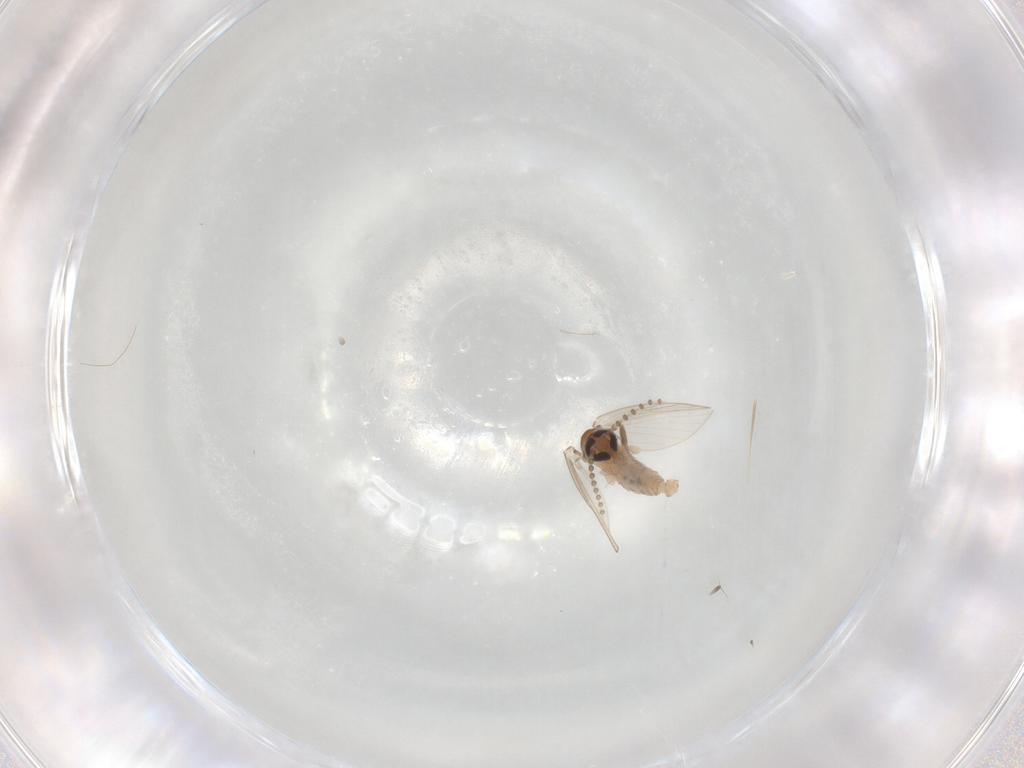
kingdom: Animalia
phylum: Arthropoda
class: Insecta
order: Diptera
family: Psychodidae
